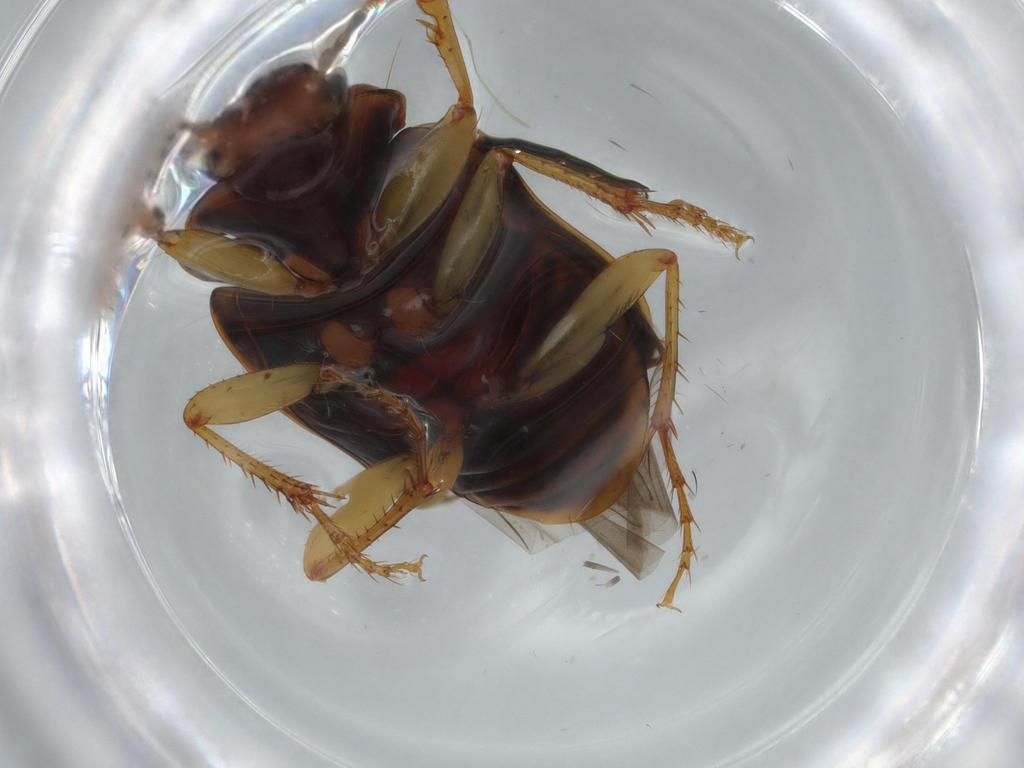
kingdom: Animalia
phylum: Arthropoda
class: Insecta
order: Coleoptera
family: Carabidae
